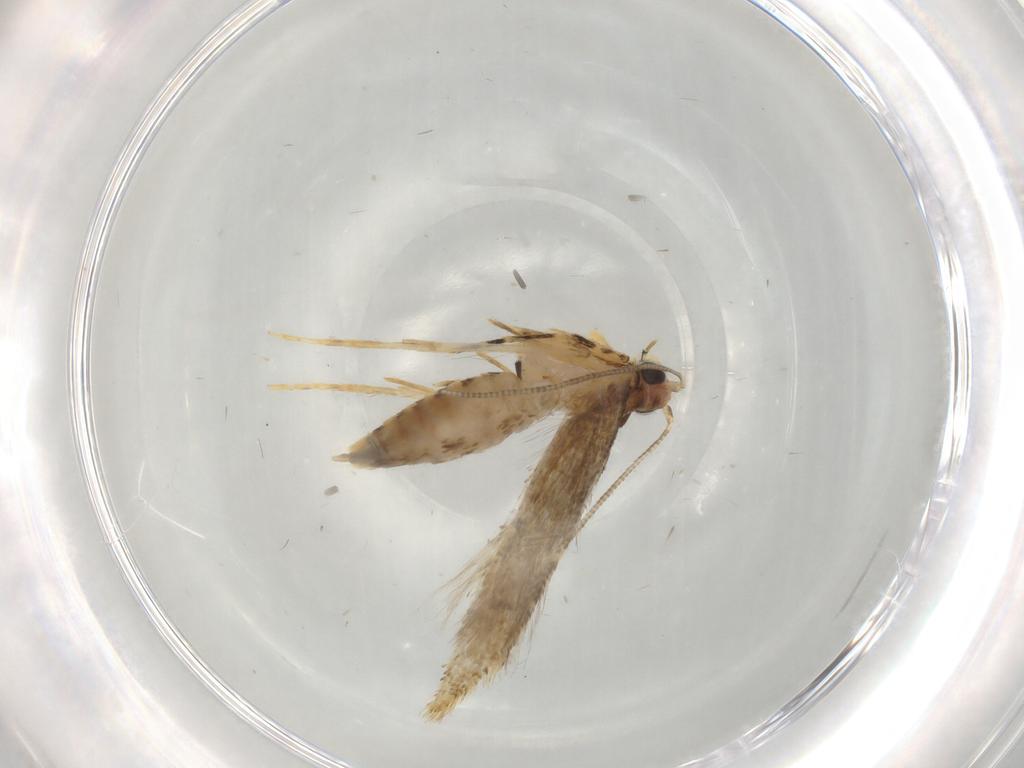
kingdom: Animalia
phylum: Arthropoda
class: Insecta
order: Lepidoptera
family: Tineidae
